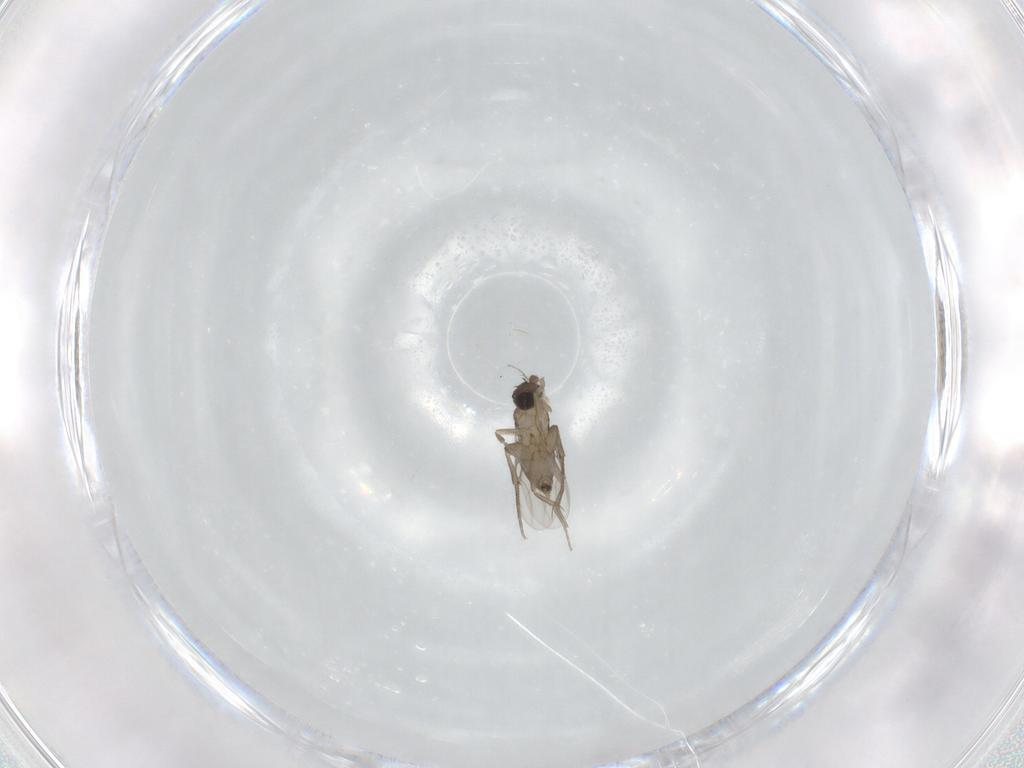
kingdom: Animalia
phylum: Arthropoda
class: Insecta
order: Diptera
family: Phoridae
